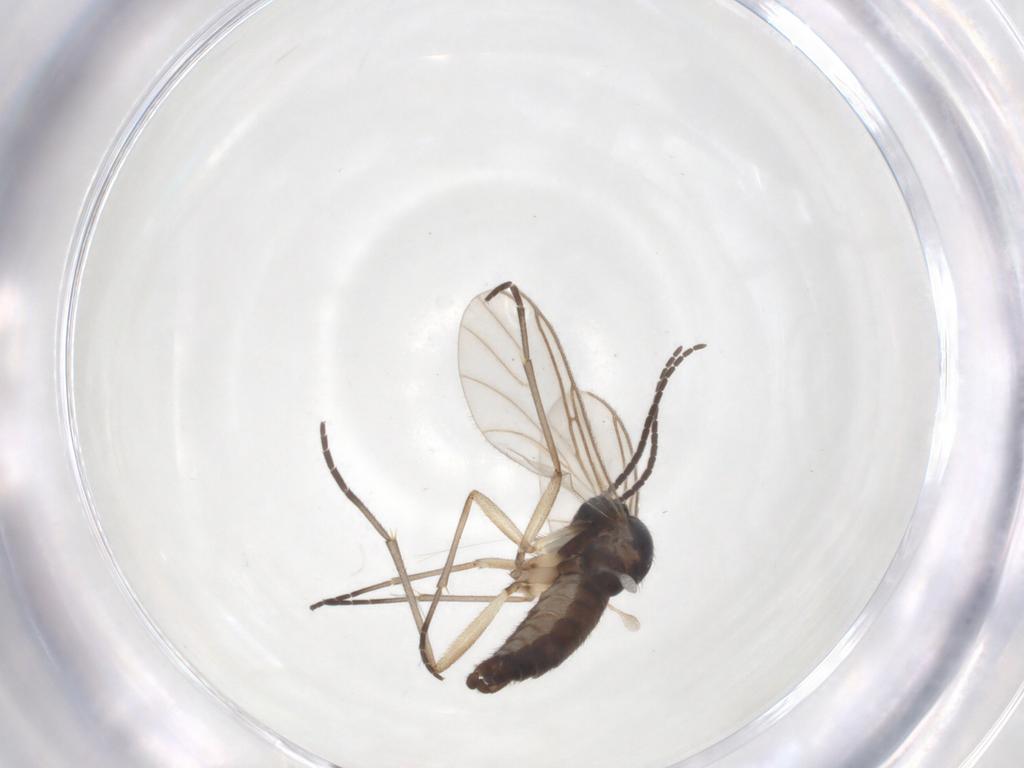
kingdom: Animalia
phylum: Arthropoda
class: Insecta
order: Diptera
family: Sciaridae
